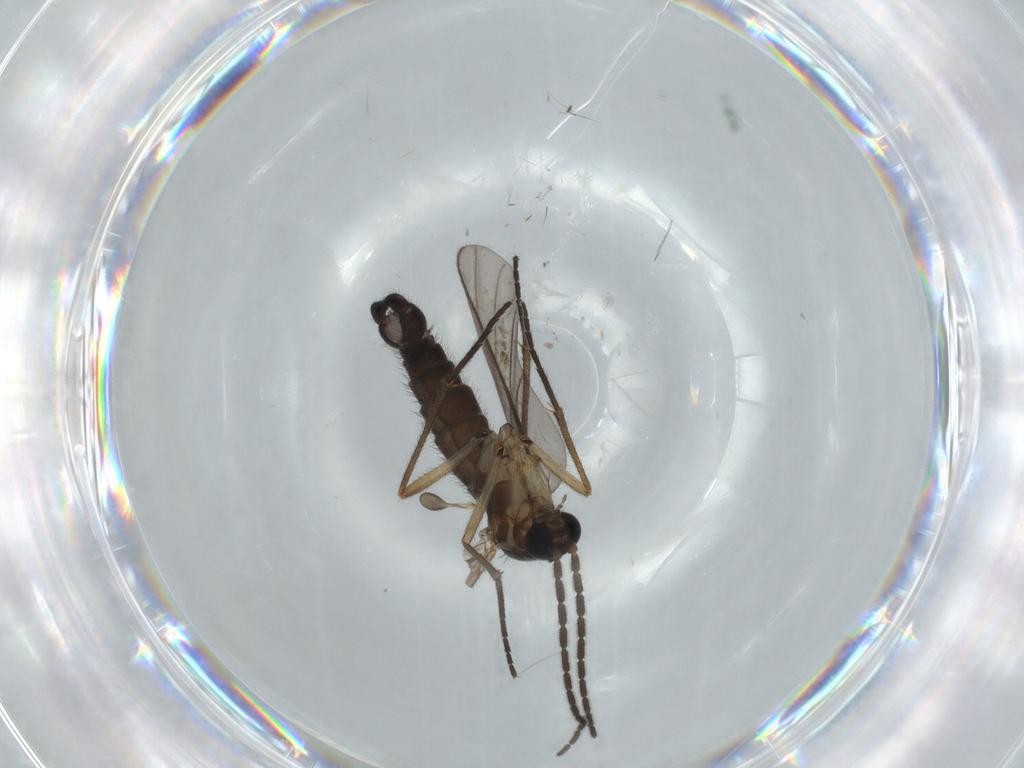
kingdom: Animalia
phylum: Arthropoda
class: Insecta
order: Diptera
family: Sciaridae
